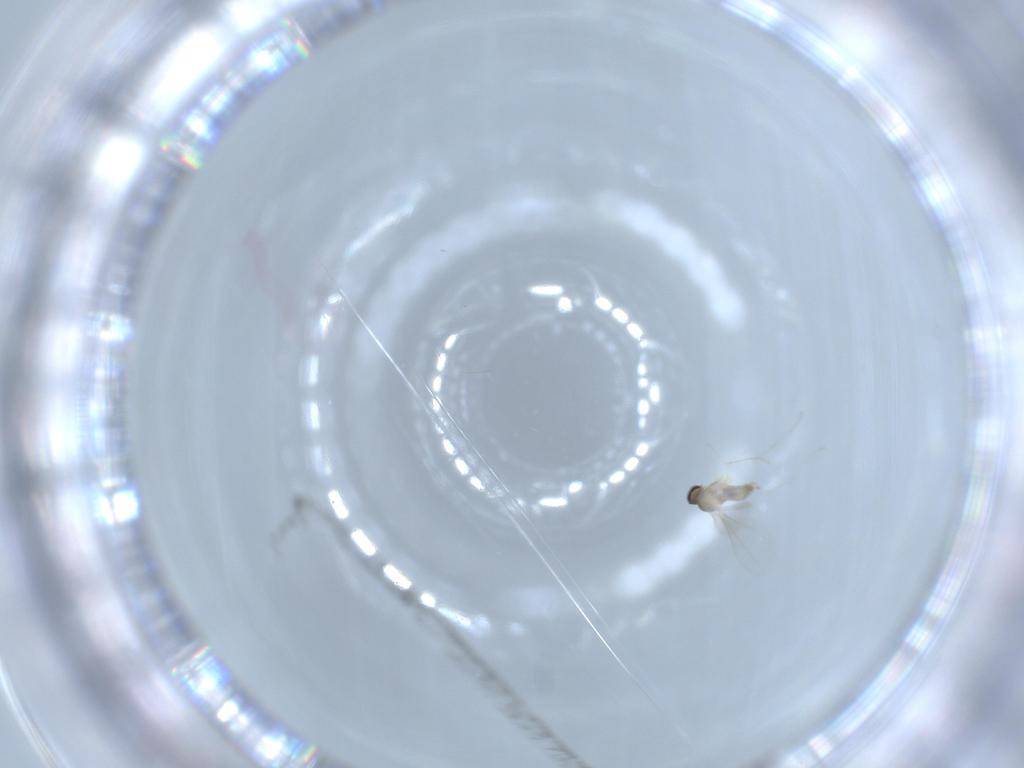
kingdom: Animalia
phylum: Arthropoda
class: Insecta
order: Diptera
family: Cecidomyiidae
